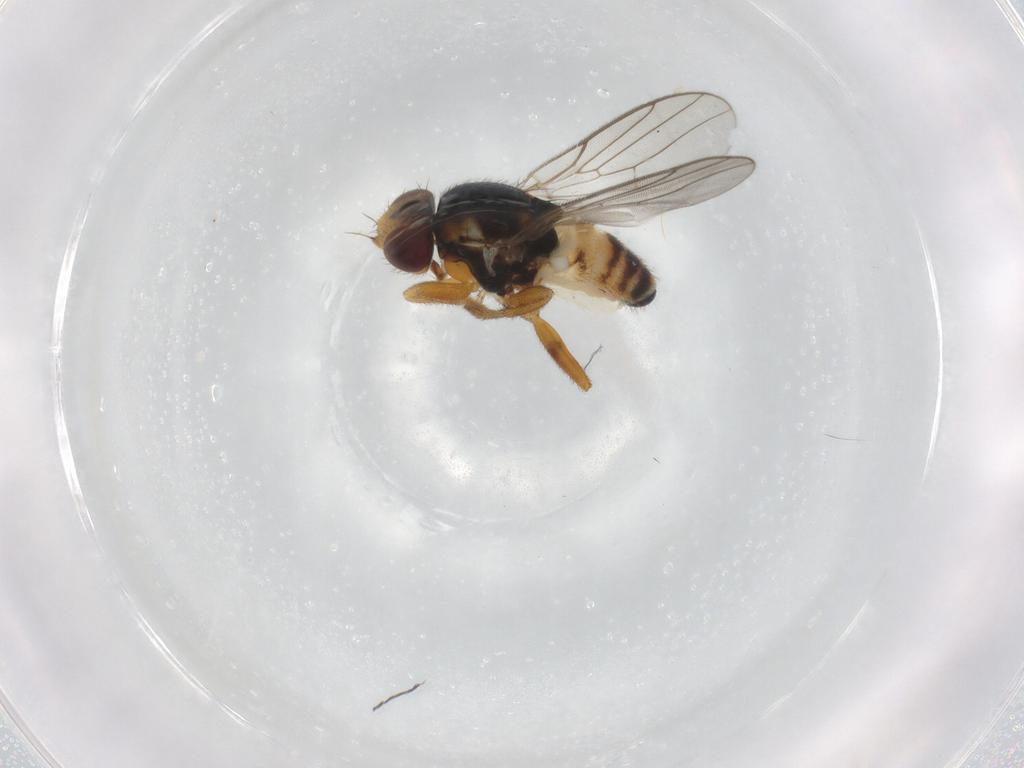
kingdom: Animalia
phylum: Arthropoda
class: Insecta
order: Diptera
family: Chloropidae
